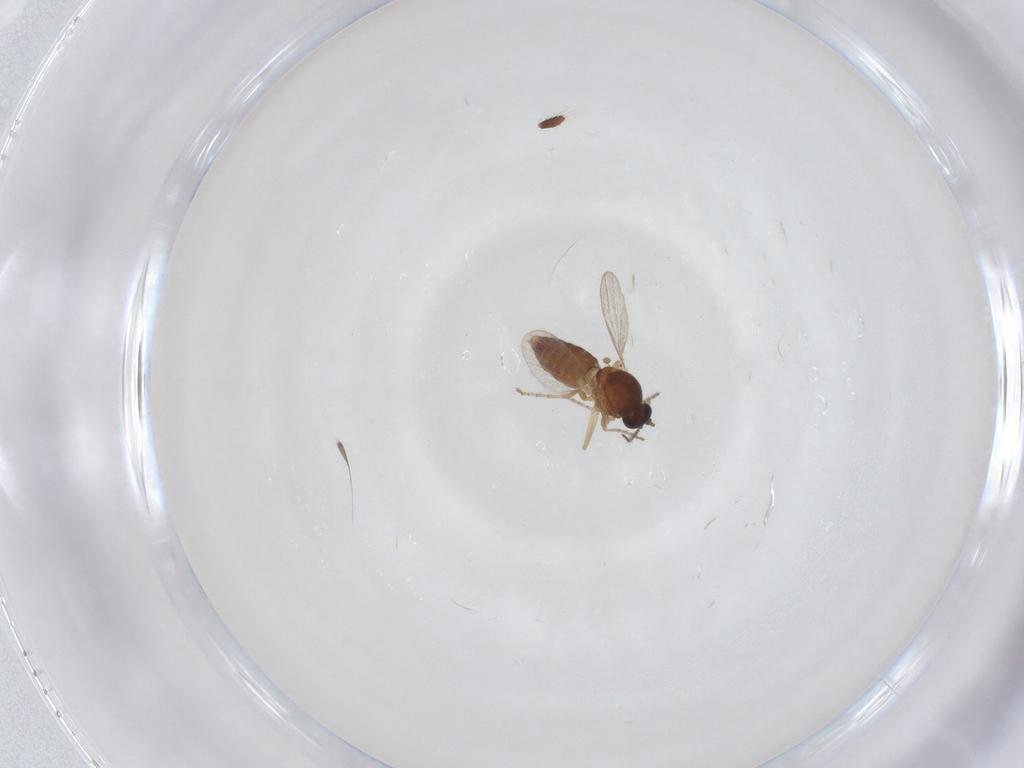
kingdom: Animalia
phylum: Arthropoda
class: Insecta
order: Diptera
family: Ceratopogonidae
